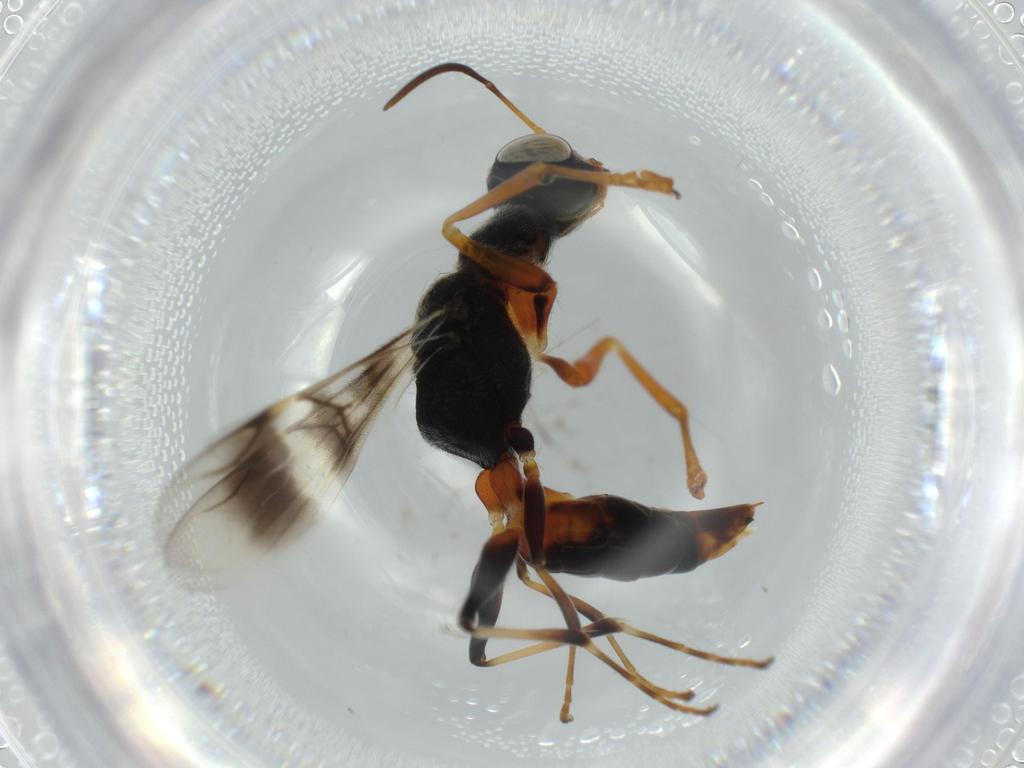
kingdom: Animalia
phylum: Arthropoda
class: Insecta
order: Hymenoptera
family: Dryinidae
